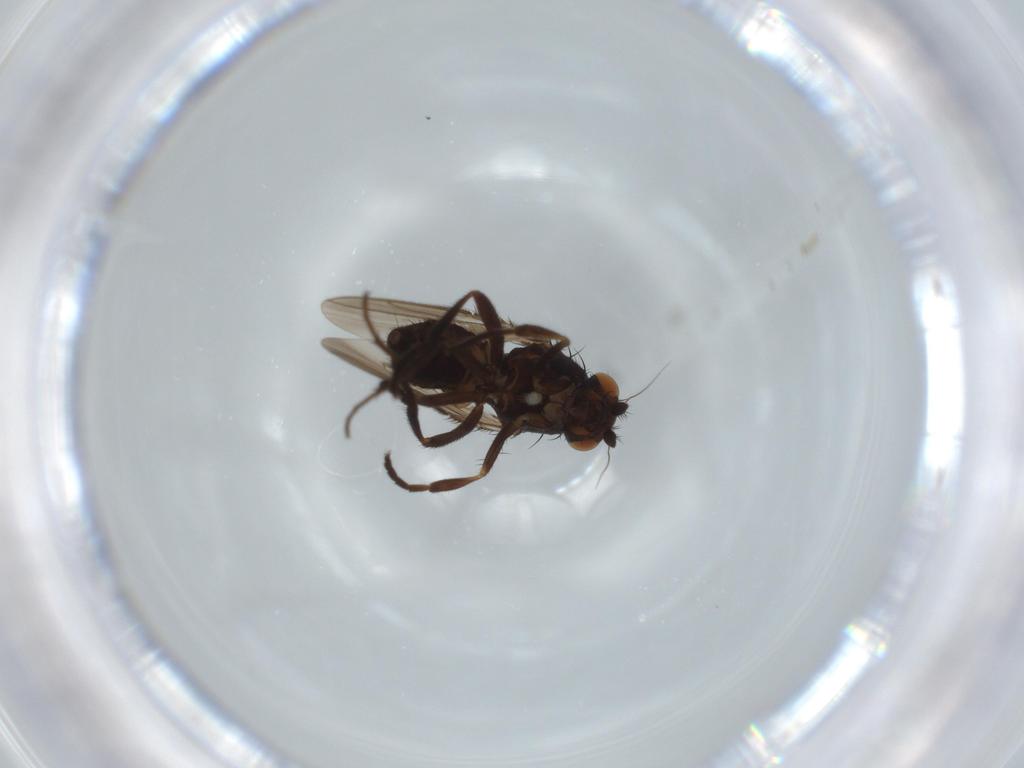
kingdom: Animalia
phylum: Arthropoda
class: Insecta
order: Diptera
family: Sphaeroceridae
